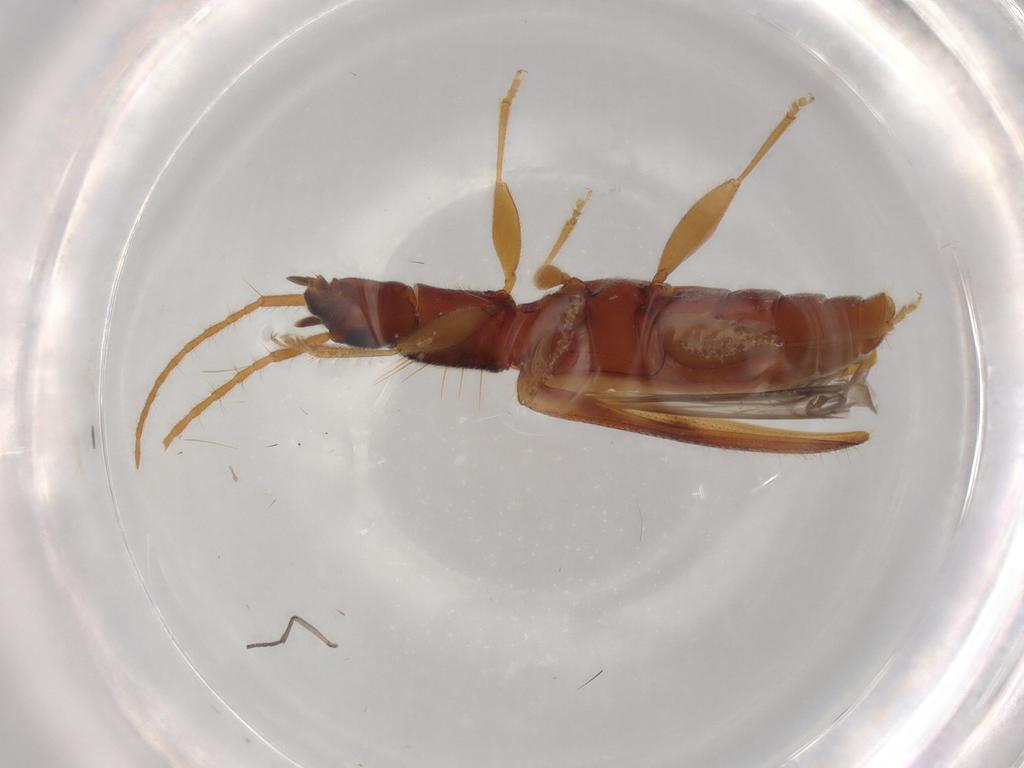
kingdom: Animalia
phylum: Arthropoda
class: Insecta
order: Coleoptera
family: Silvanidae
